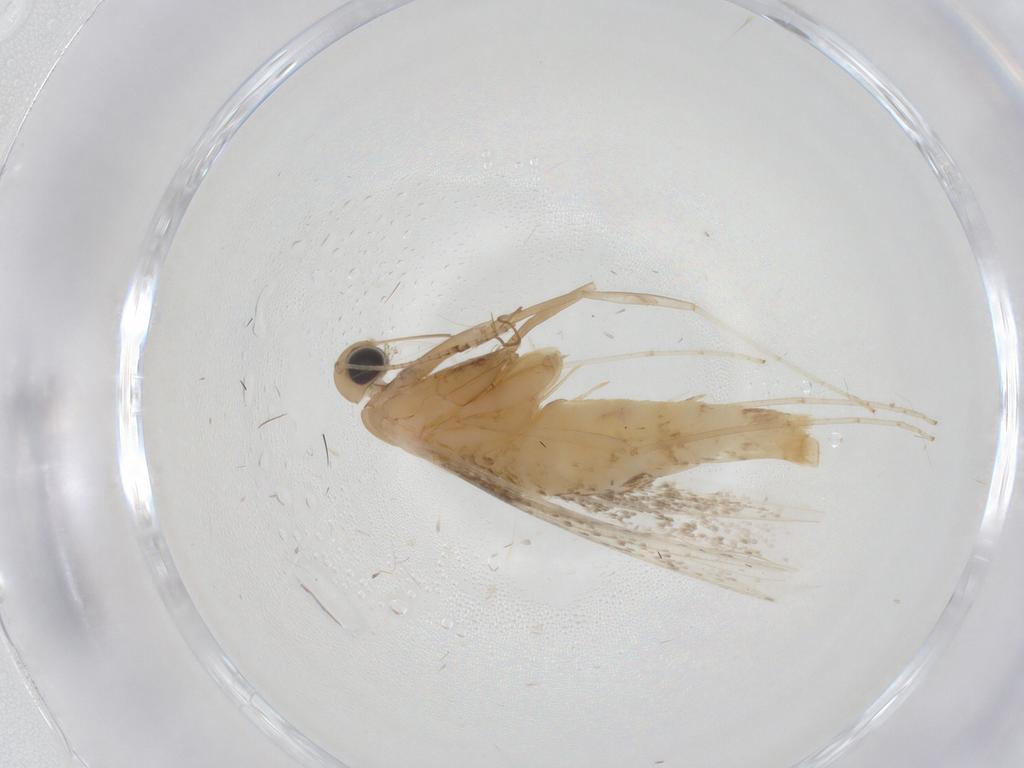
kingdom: Animalia
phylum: Arthropoda
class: Insecta
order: Lepidoptera
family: Gracillariidae
